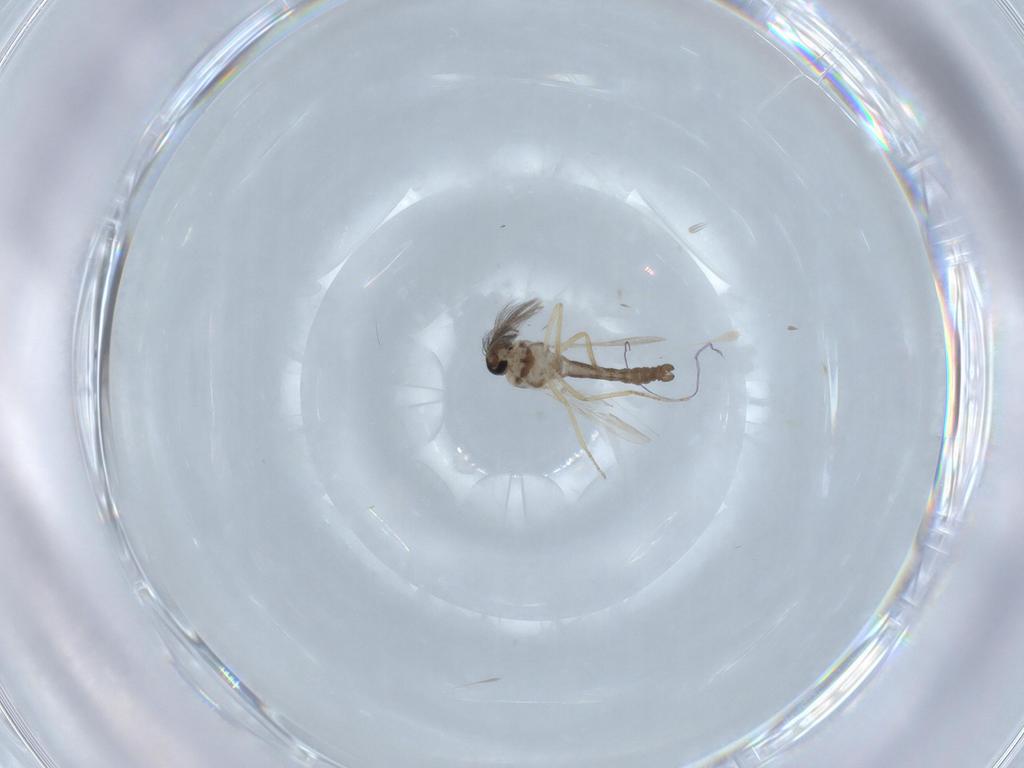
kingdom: Animalia
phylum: Arthropoda
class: Insecta
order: Diptera
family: Ceratopogonidae
